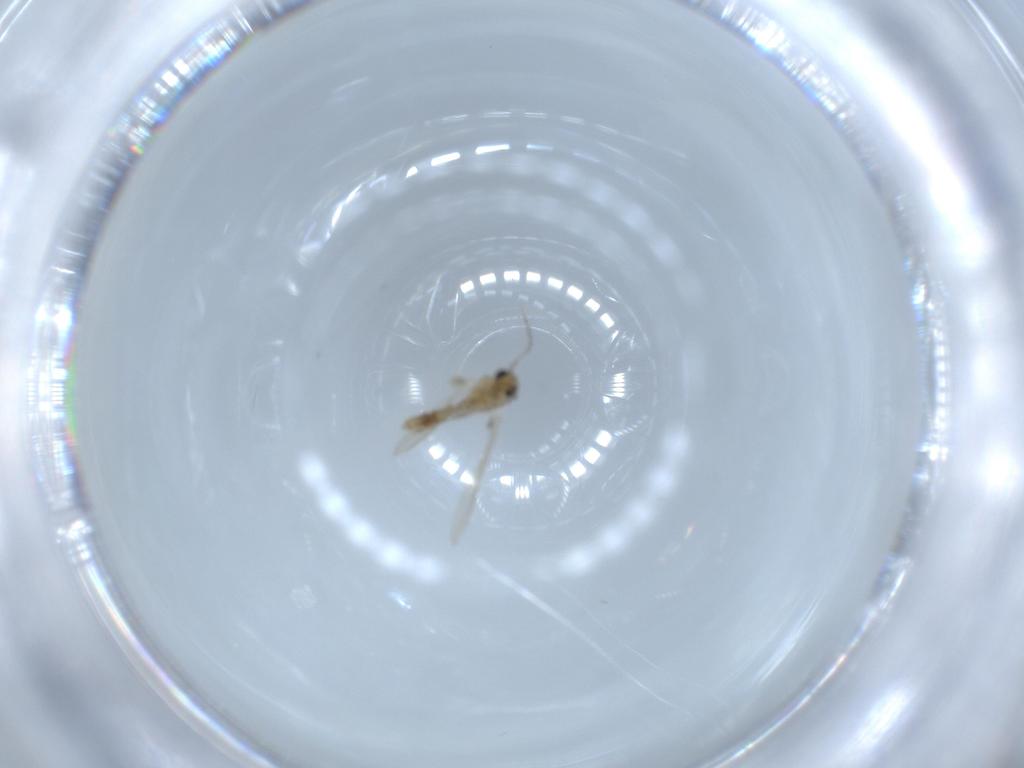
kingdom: Animalia
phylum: Arthropoda
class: Insecta
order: Diptera
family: Psychodidae
